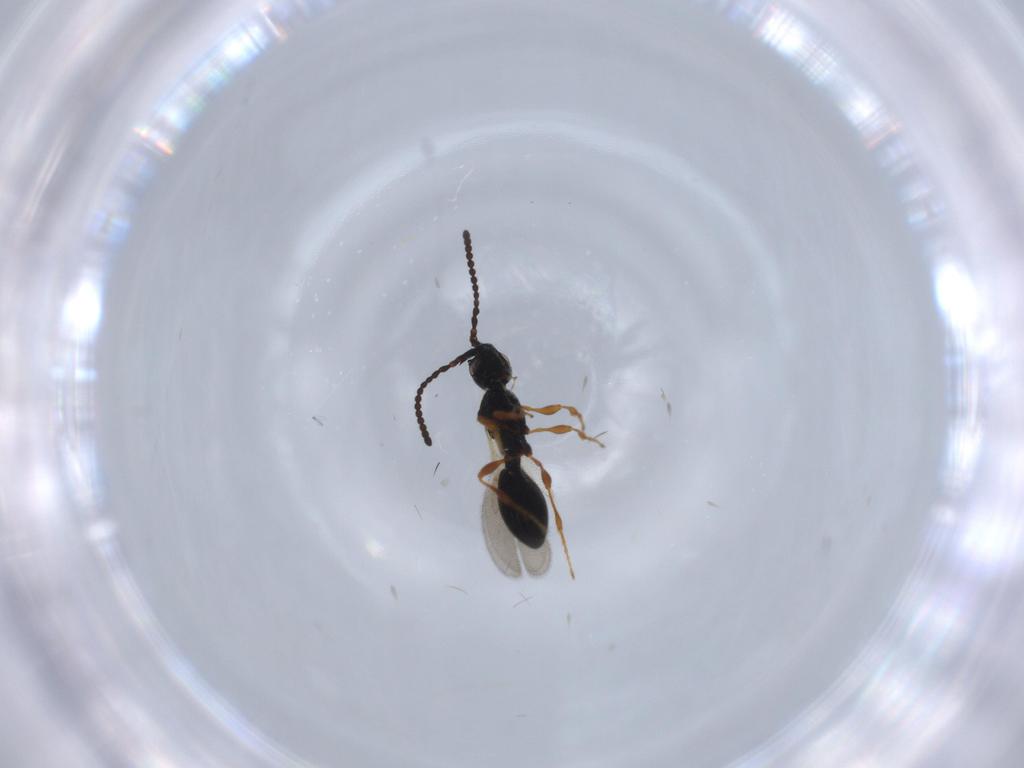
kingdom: Animalia
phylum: Arthropoda
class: Insecta
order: Hymenoptera
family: Diapriidae
